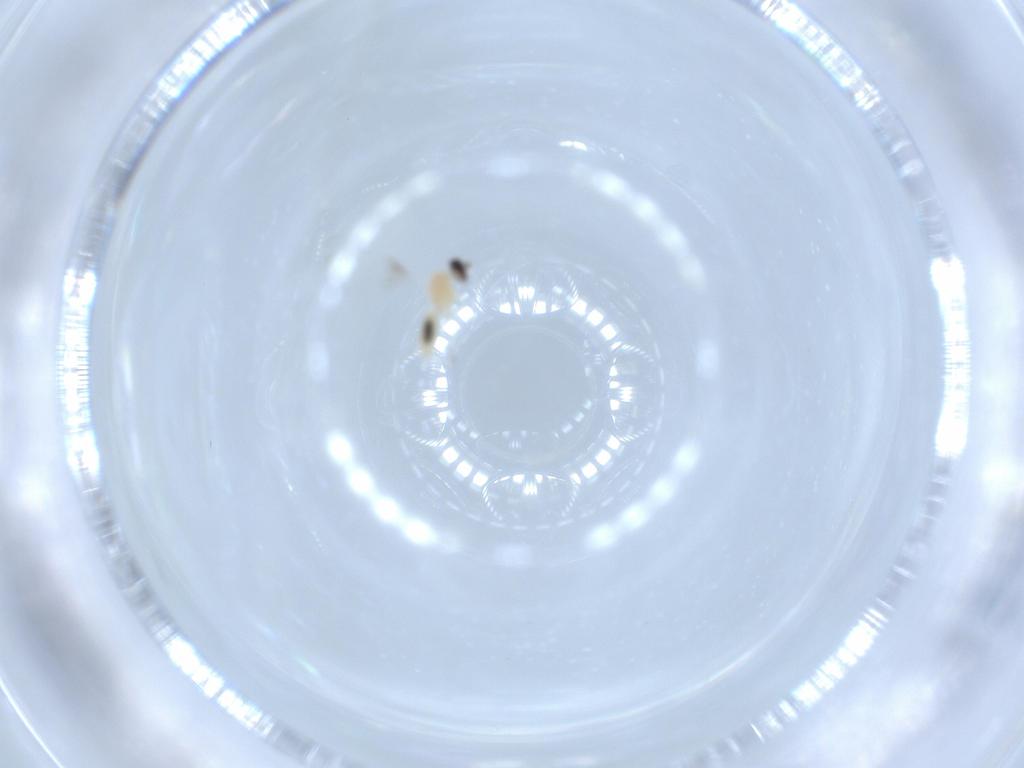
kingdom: Animalia
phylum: Arthropoda
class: Insecta
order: Diptera
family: Cecidomyiidae
